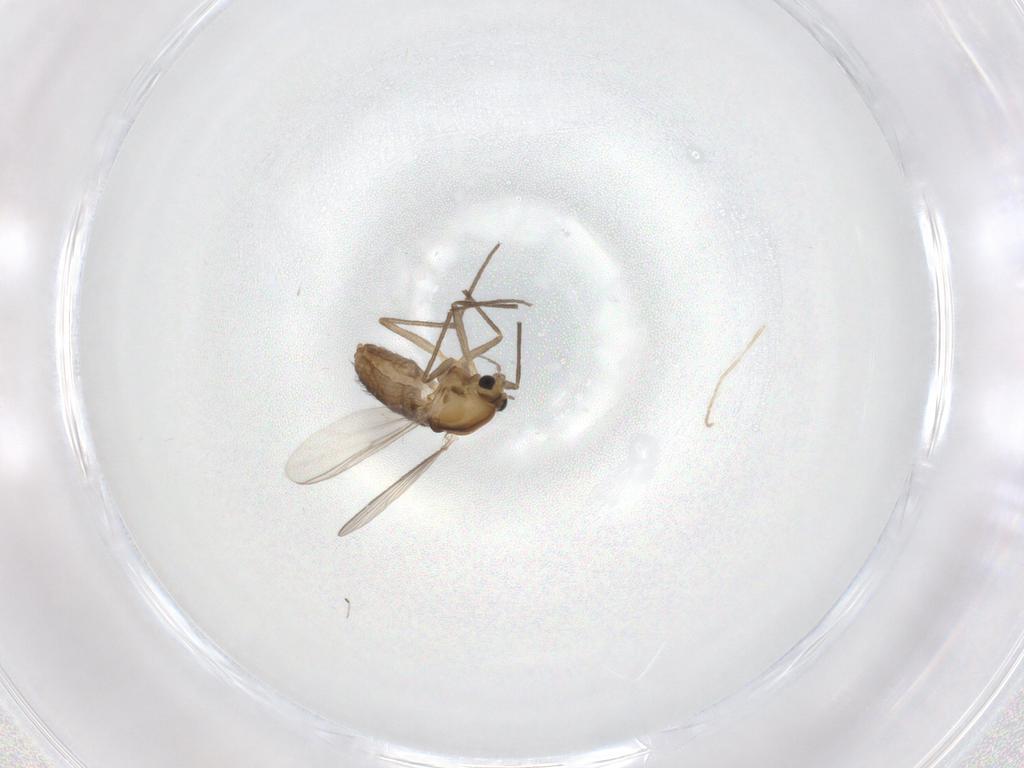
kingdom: Animalia
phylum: Arthropoda
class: Insecta
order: Diptera
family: Chironomidae
